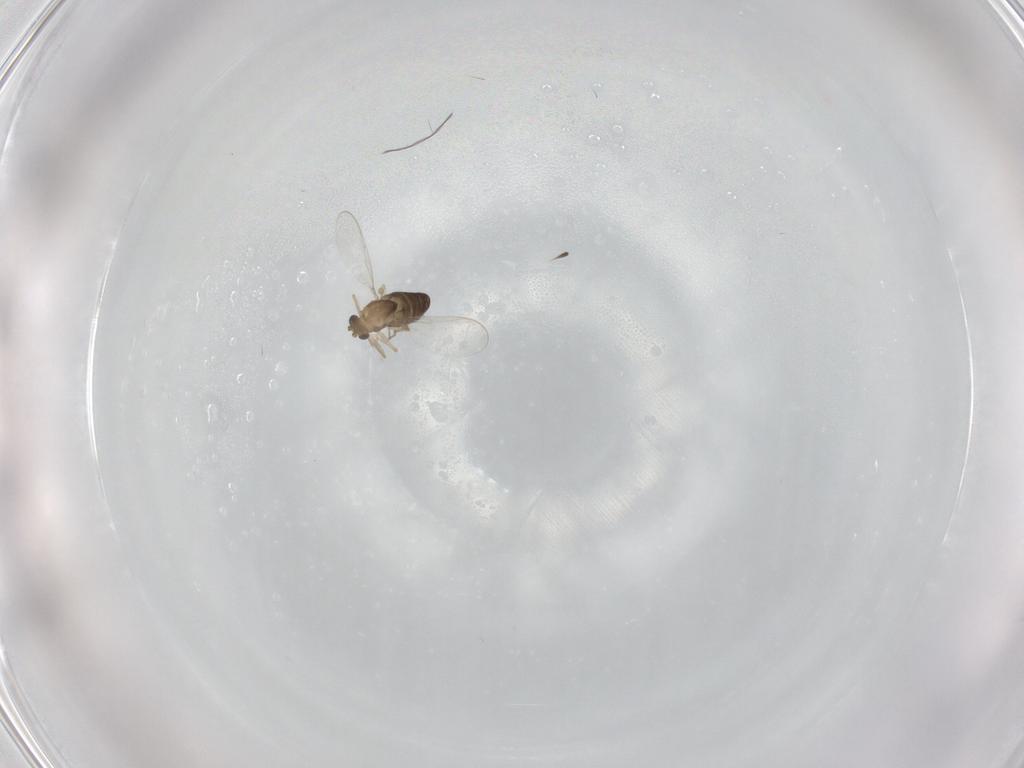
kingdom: Animalia
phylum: Arthropoda
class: Insecta
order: Diptera
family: Chironomidae
